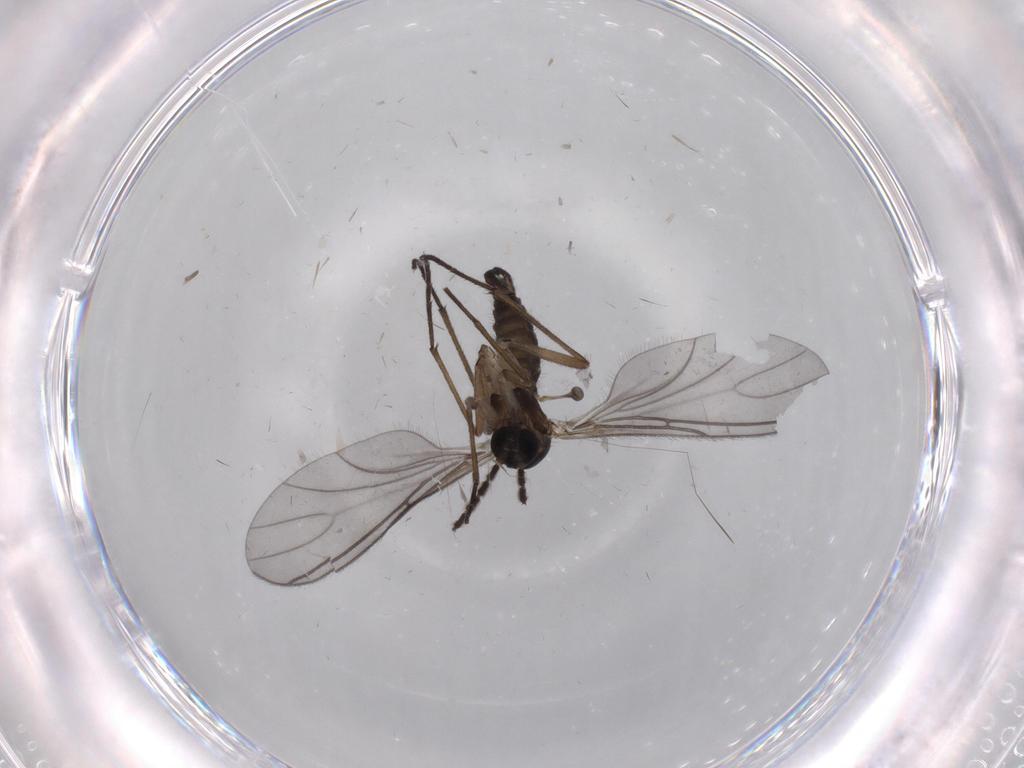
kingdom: Animalia
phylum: Arthropoda
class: Insecta
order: Diptera
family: Sciaridae
